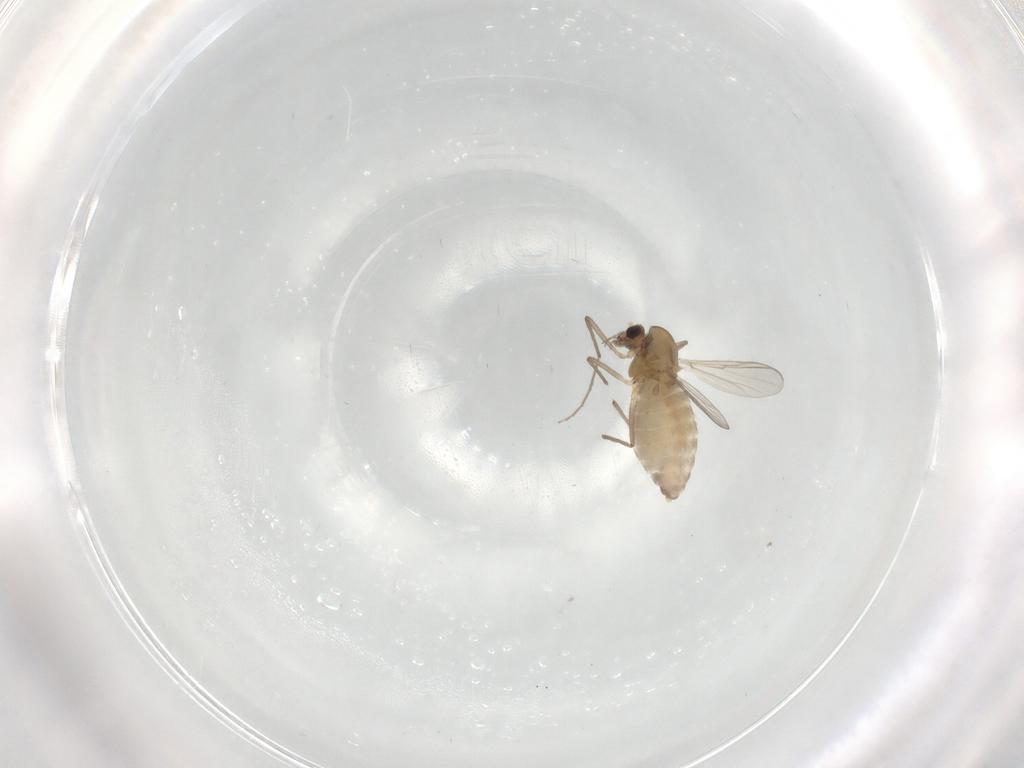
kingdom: Animalia
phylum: Arthropoda
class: Insecta
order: Diptera
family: Chironomidae
